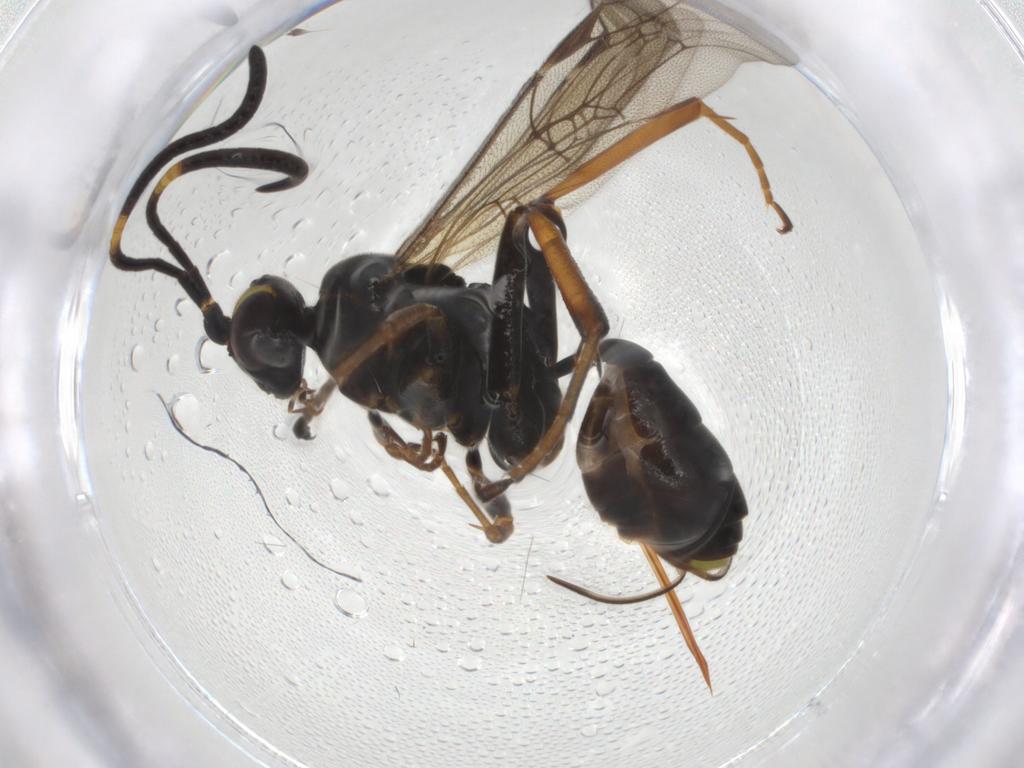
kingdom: Animalia
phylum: Arthropoda
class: Insecta
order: Hymenoptera
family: Ichneumonidae
